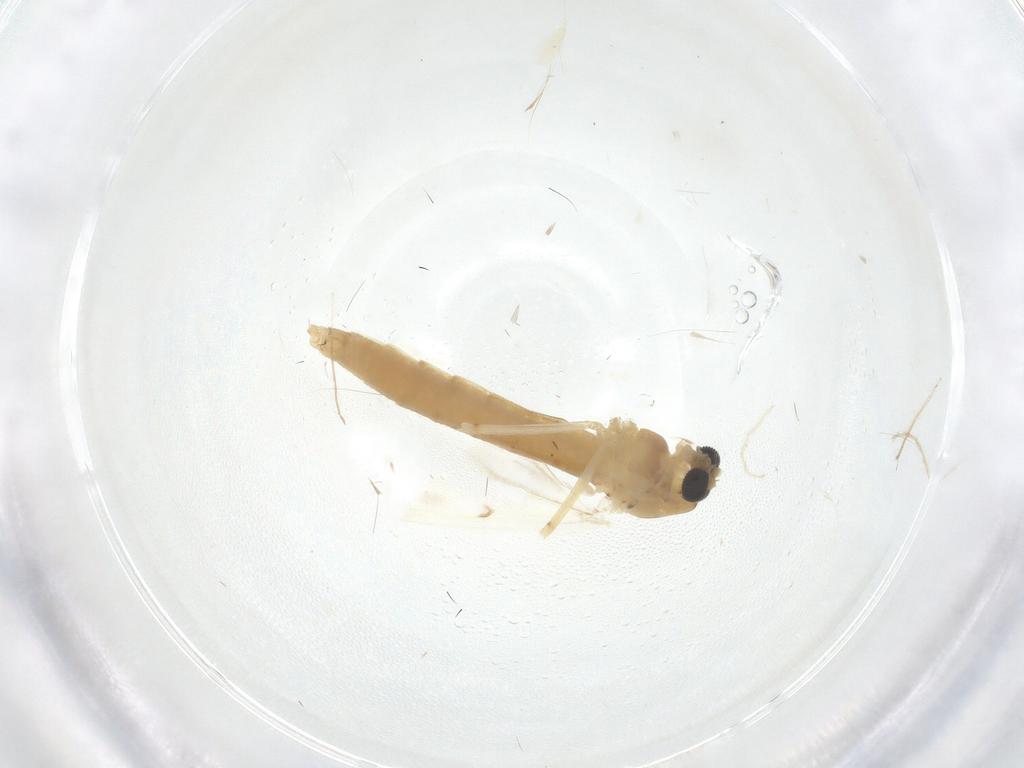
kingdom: Animalia
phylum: Arthropoda
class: Insecta
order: Diptera
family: Chironomidae
